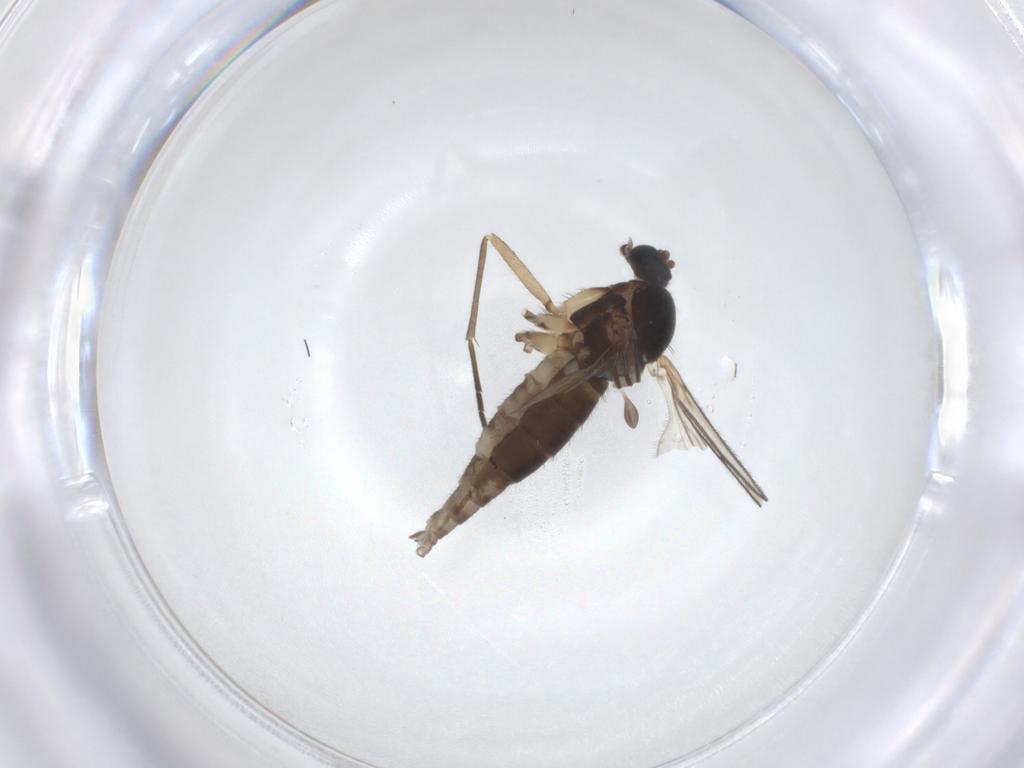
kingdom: Animalia
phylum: Arthropoda
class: Insecta
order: Diptera
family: Sciaridae
